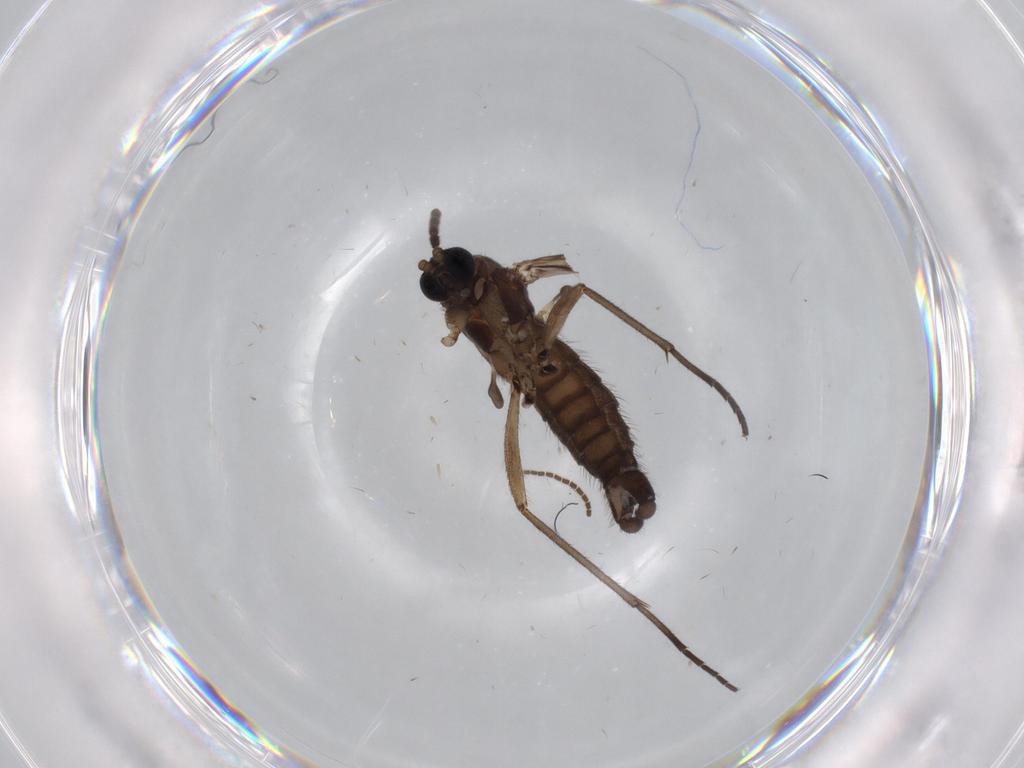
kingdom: Animalia
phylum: Arthropoda
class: Insecta
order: Diptera
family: Sciaridae
